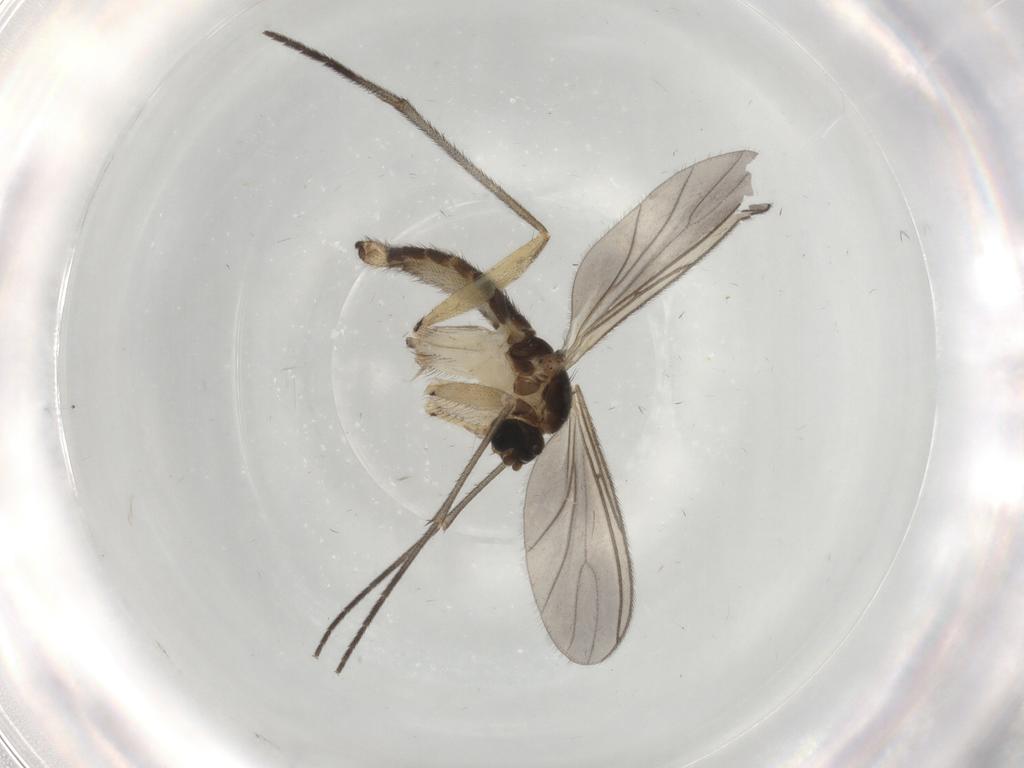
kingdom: Animalia
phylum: Arthropoda
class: Insecta
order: Diptera
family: Sciaridae
